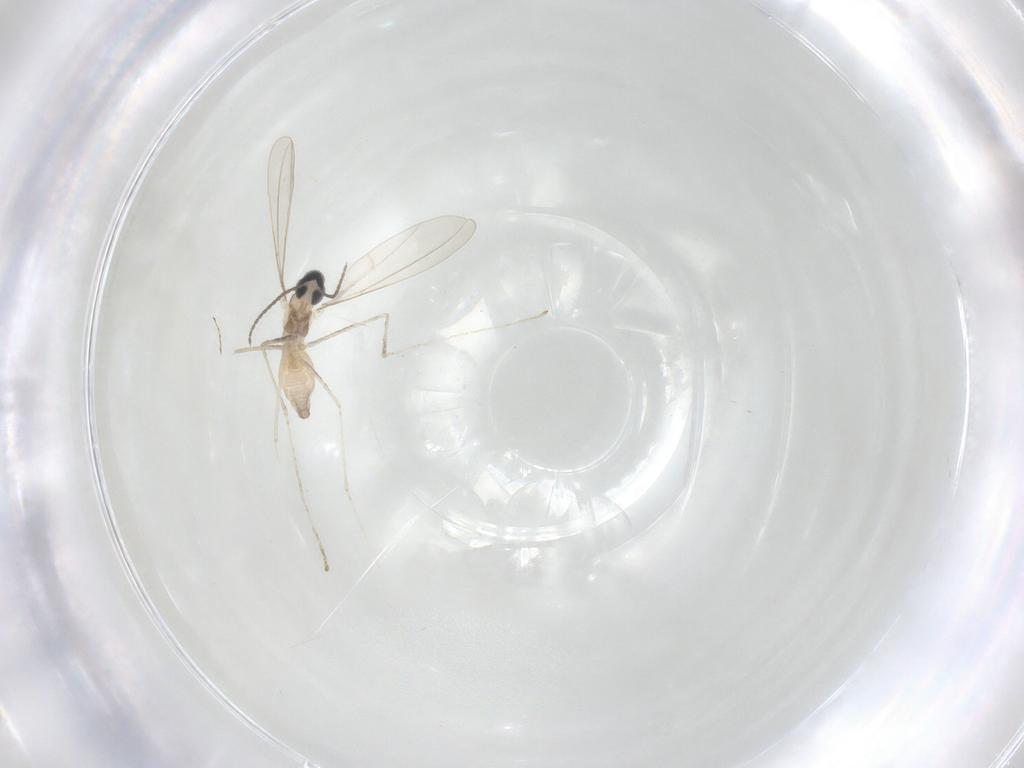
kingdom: Animalia
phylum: Arthropoda
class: Insecta
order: Diptera
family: Cecidomyiidae
